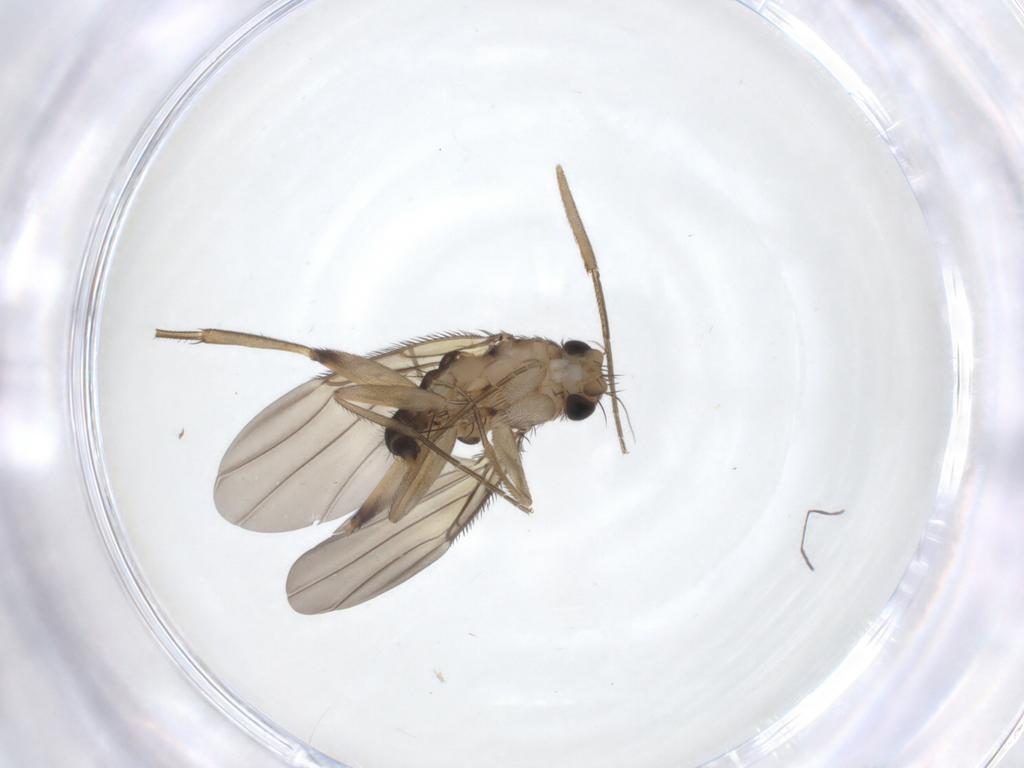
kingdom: Animalia
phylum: Arthropoda
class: Insecta
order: Diptera
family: Phoridae
